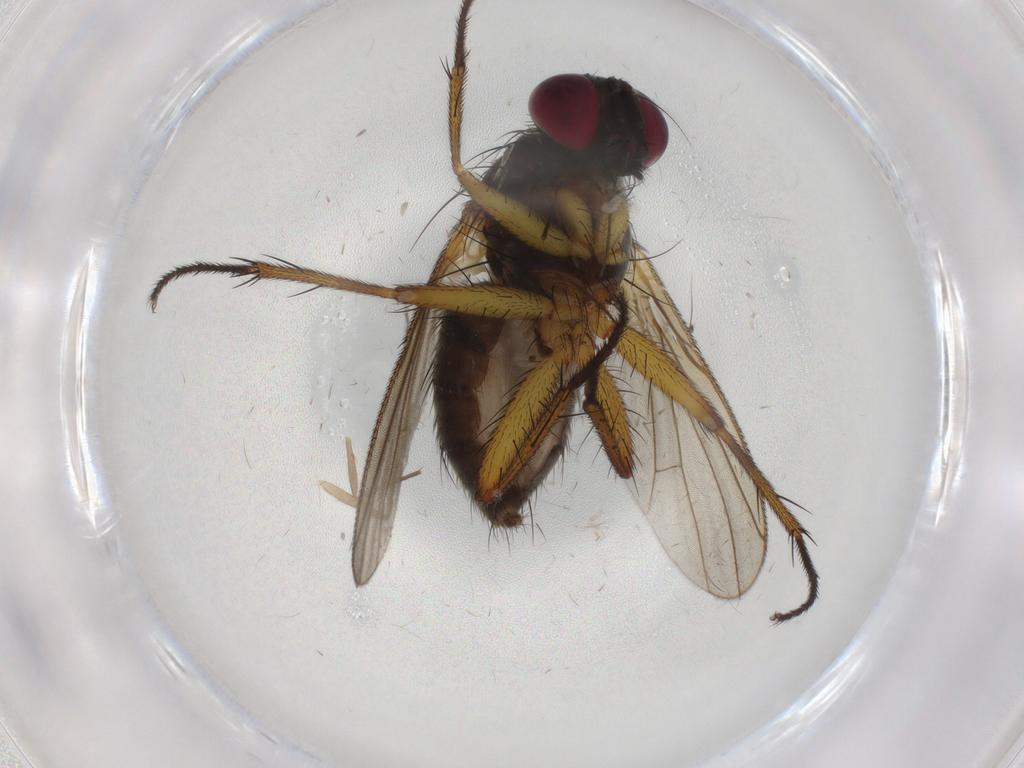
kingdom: Animalia
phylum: Arthropoda
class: Insecta
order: Diptera
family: Muscidae
